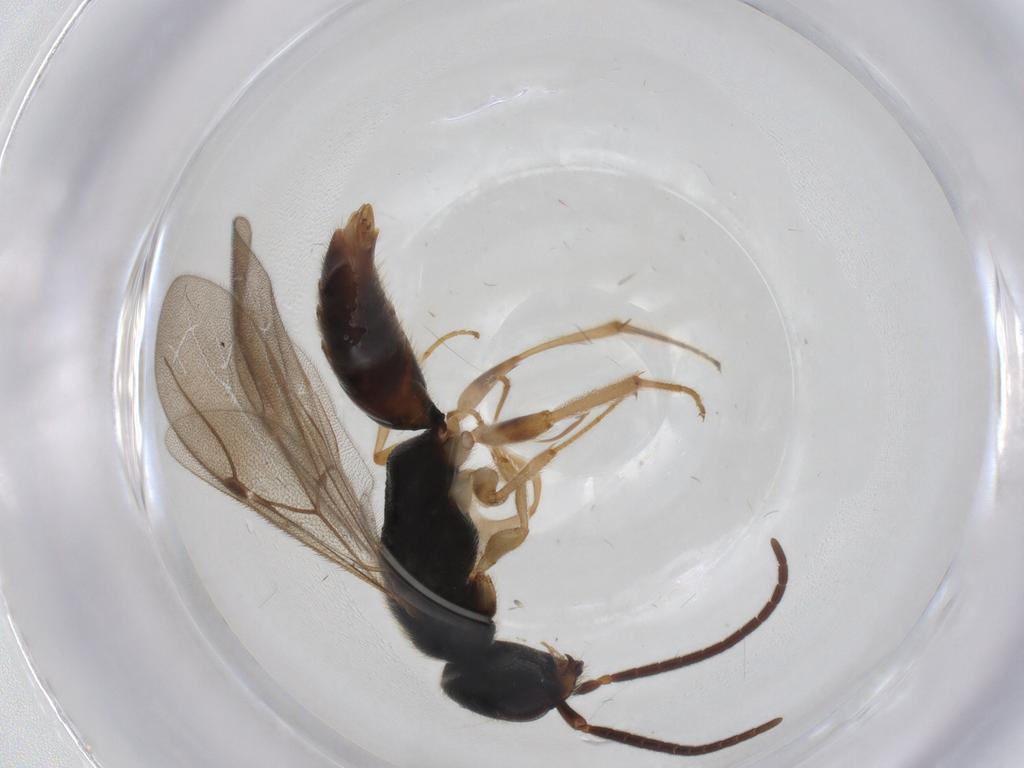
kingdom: Animalia
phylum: Arthropoda
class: Insecta
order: Hymenoptera
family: Bethylidae
